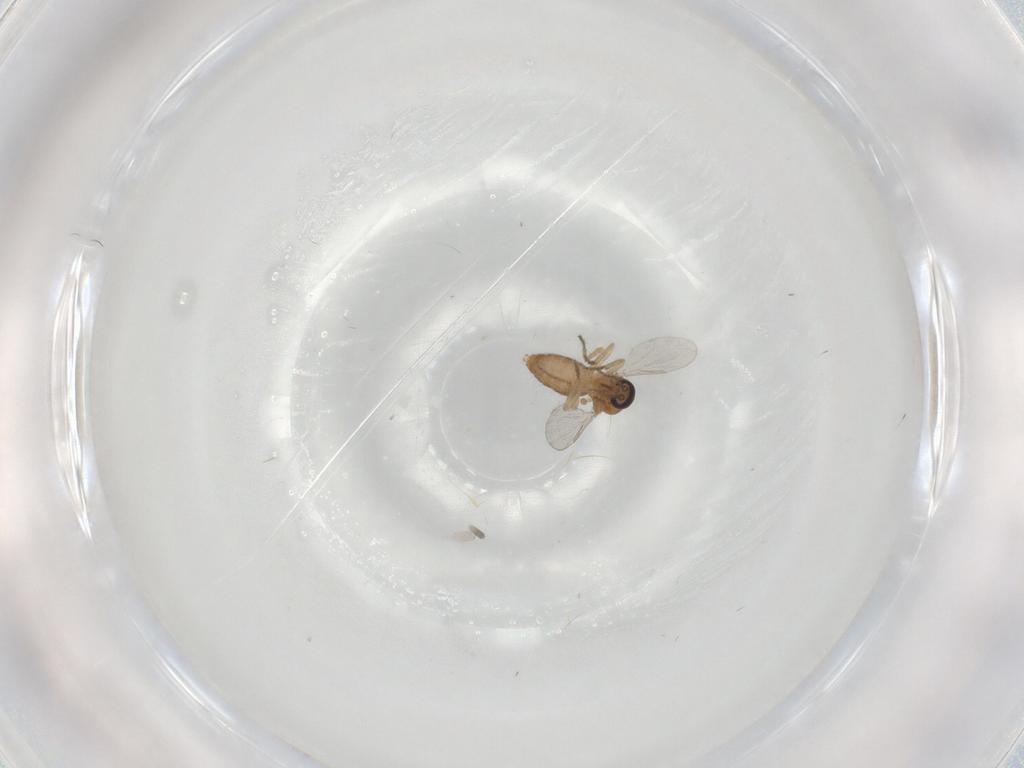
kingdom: Animalia
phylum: Arthropoda
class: Insecta
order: Diptera
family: Ceratopogonidae
